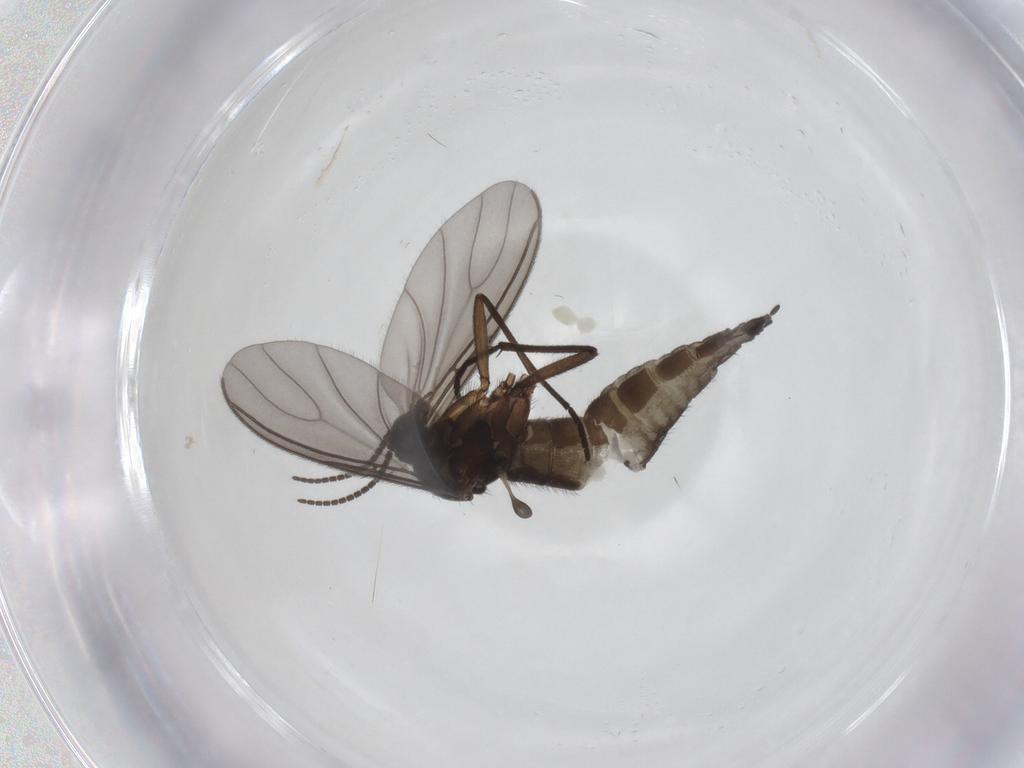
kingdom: Animalia
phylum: Arthropoda
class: Insecta
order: Diptera
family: Sciaridae
